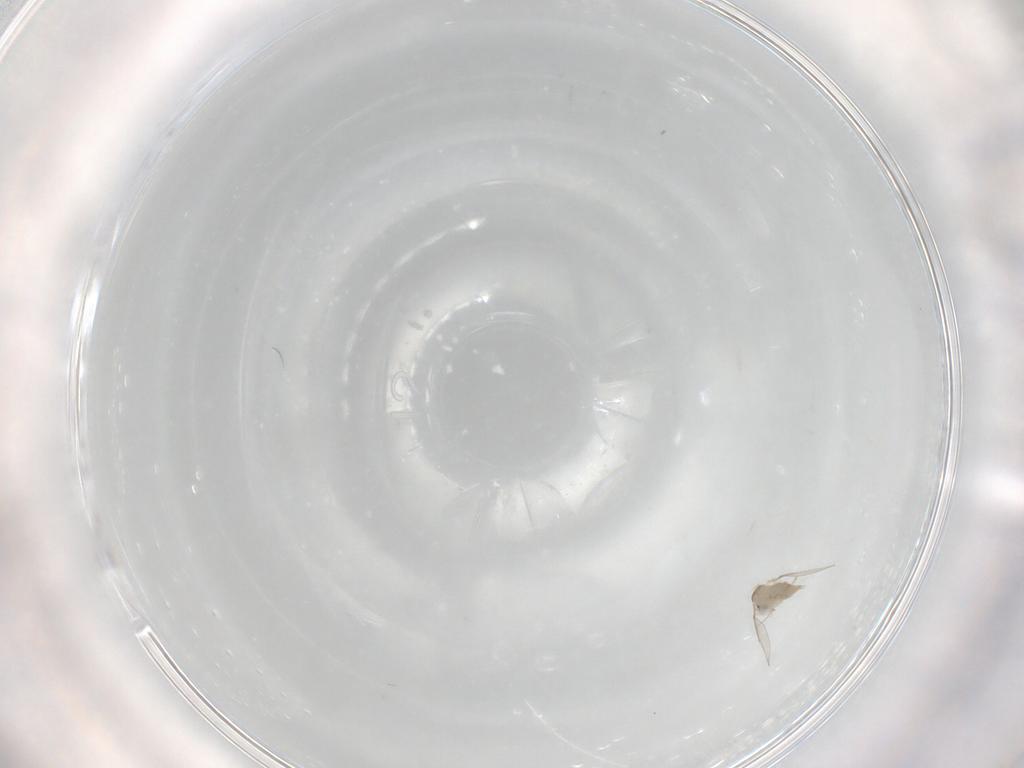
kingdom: Animalia
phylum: Arthropoda
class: Insecta
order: Diptera
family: Cecidomyiidae
